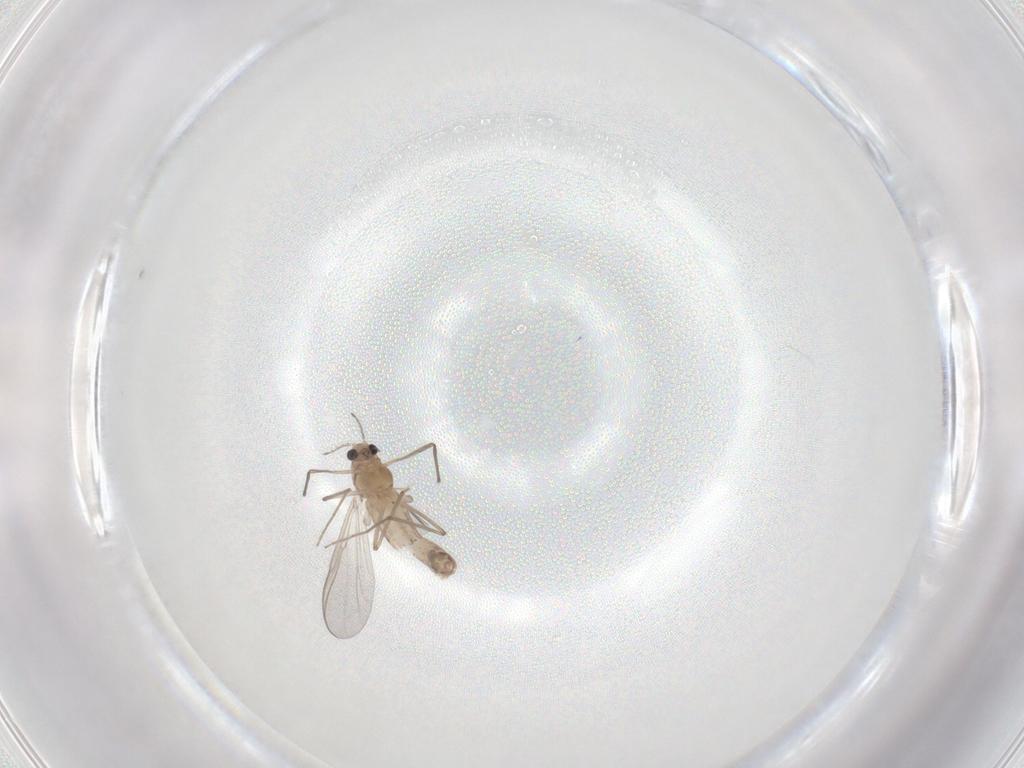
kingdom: Animalia
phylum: Arthropoda
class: Insecta
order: Diptera
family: Chironomidae
